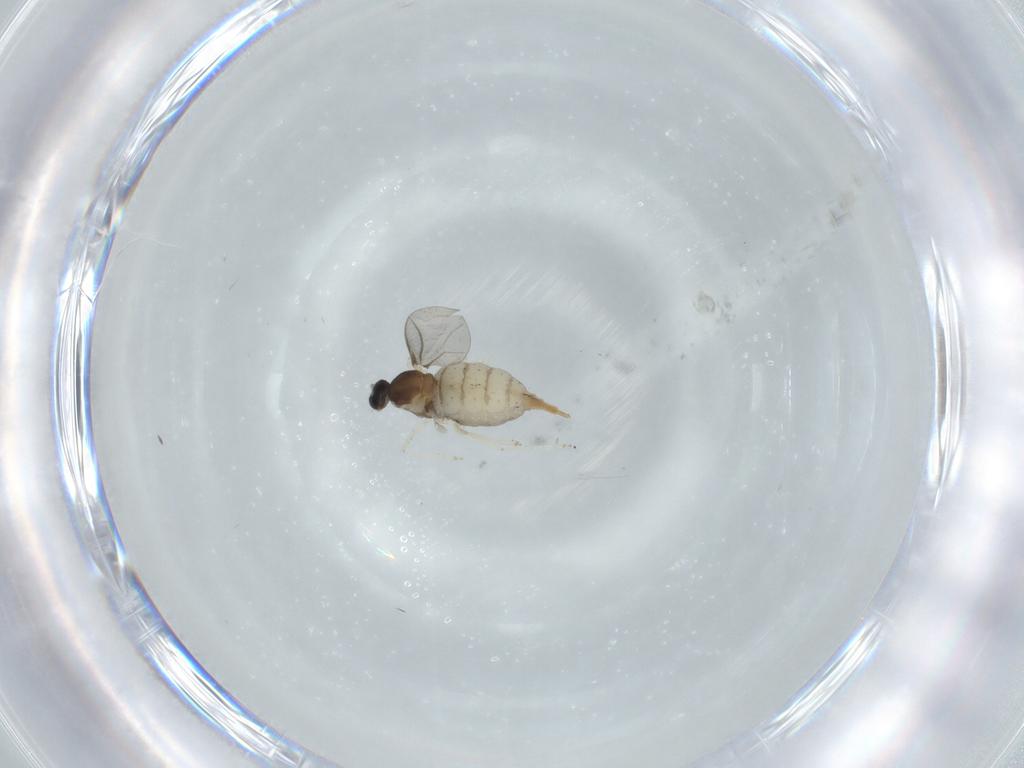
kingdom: Animalia
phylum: Arthropoda
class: Insecta
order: Diptera
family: Cecidomyiidae
